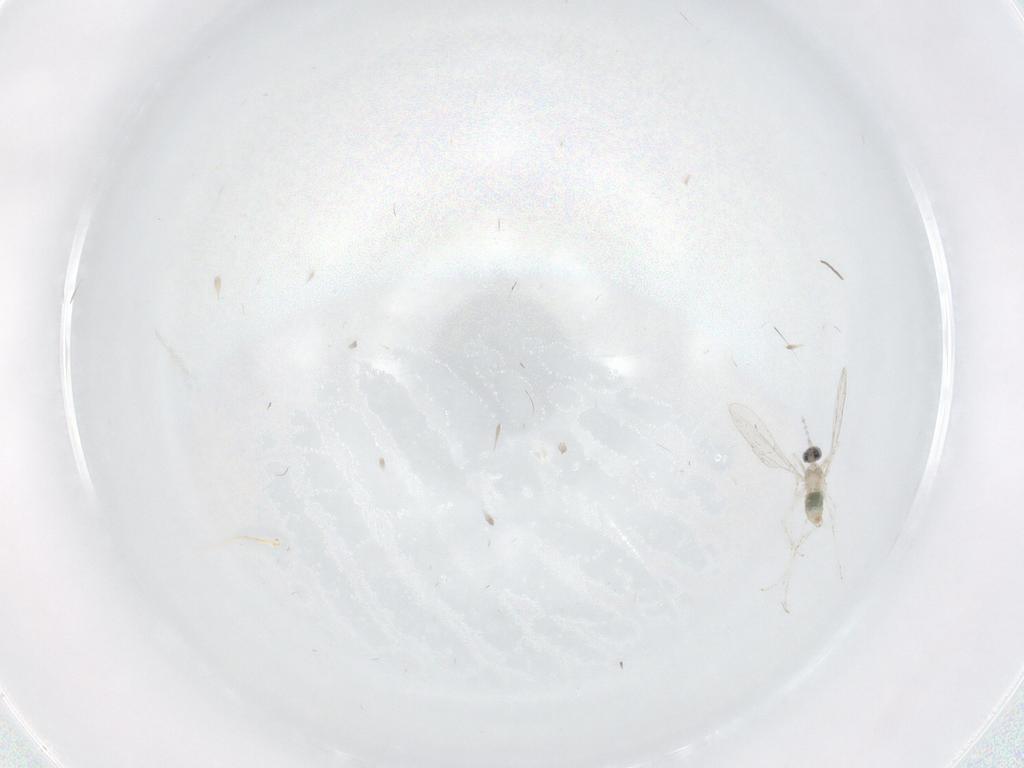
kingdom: Animalia
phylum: Arthropoda
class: Insecta
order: Diptera
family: Cecidomyiidae
